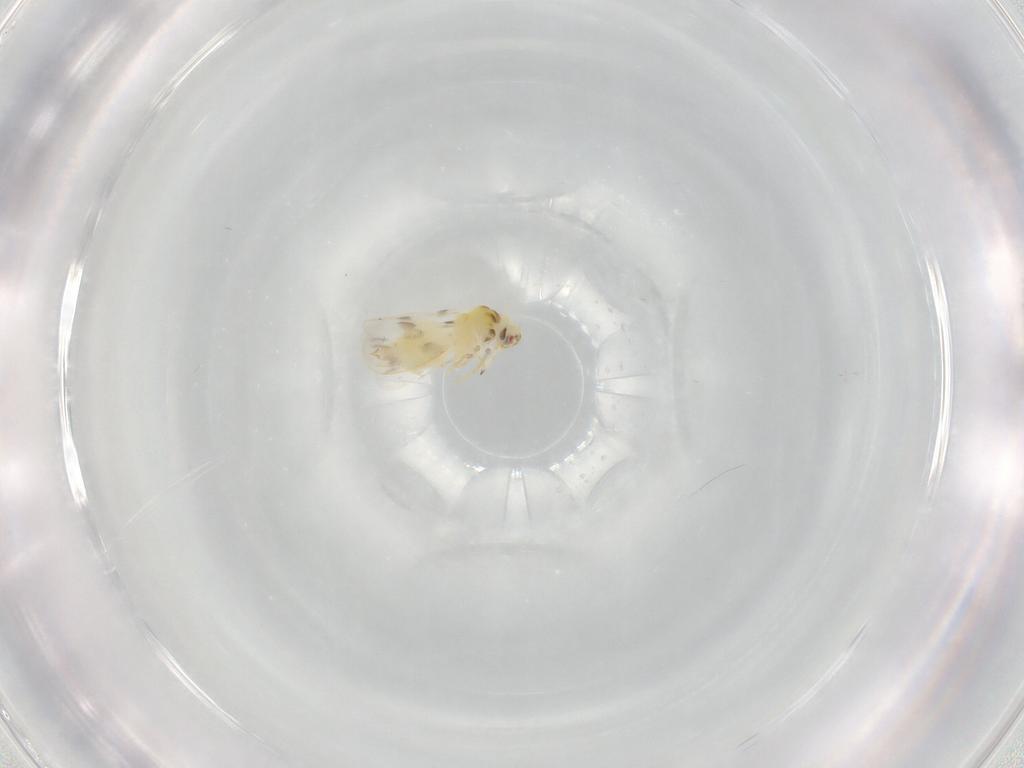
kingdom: Animalia
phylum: Arthropoda
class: Insecta
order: Hemiptera
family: Aleyrodidae
